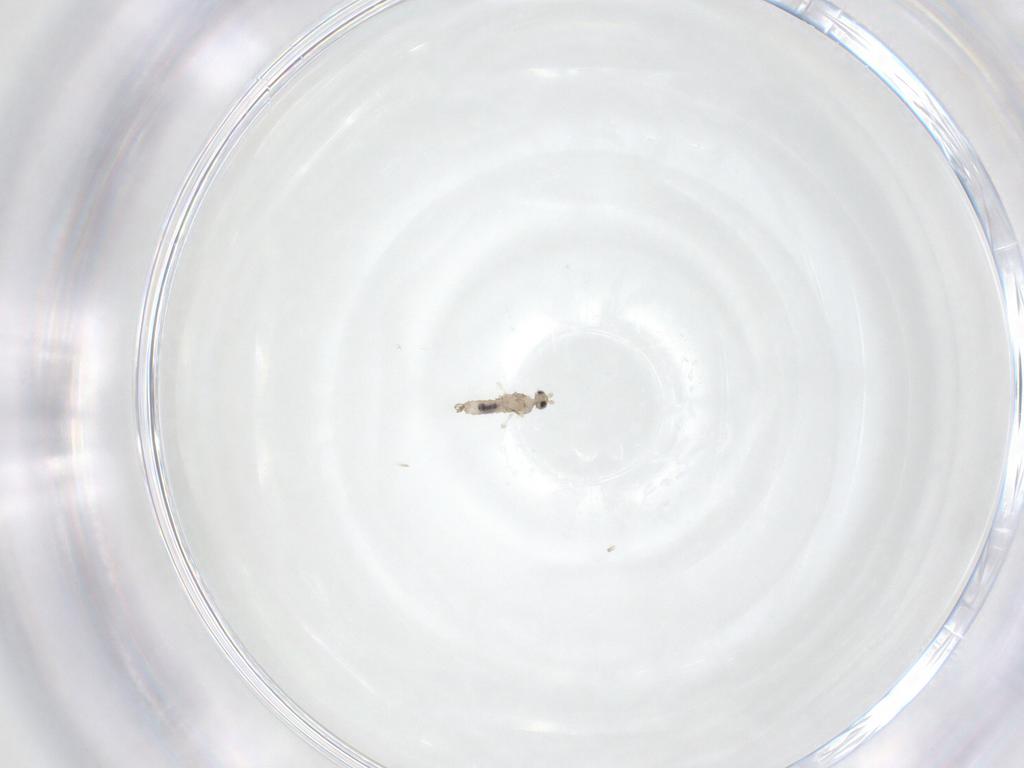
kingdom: Animalia
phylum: Arthropoda
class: Insecta
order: Diptera
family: Cecidomyiidae
